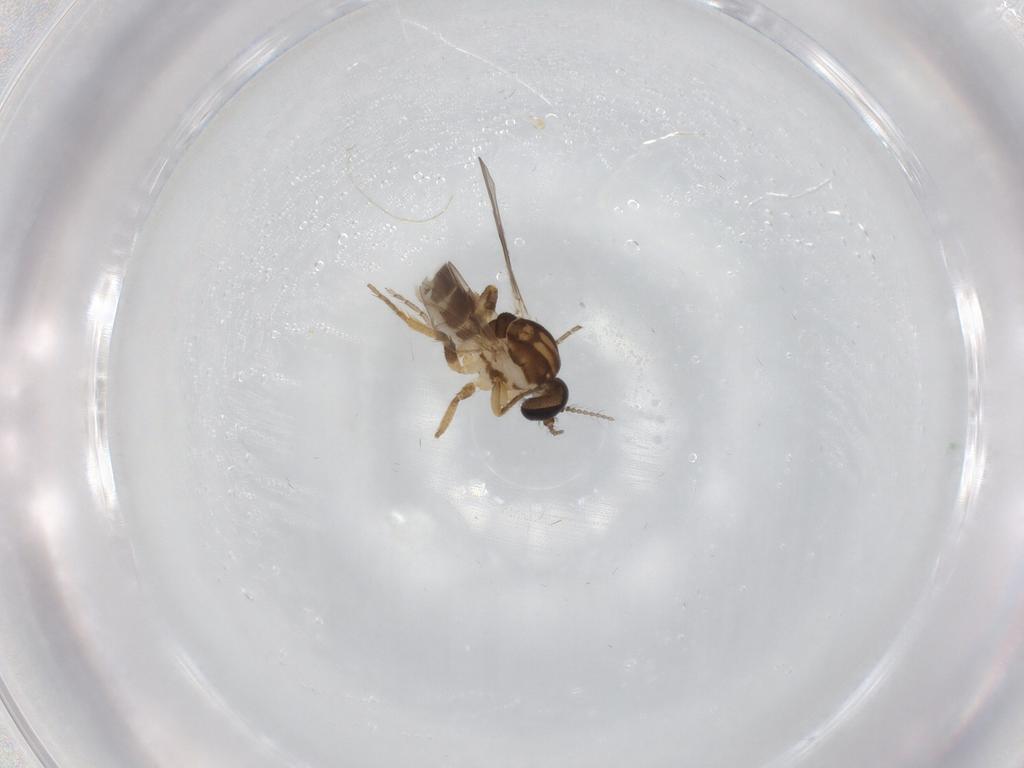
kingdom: Animalia
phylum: Arthropoda
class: Insecta
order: Diptera
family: Ceratopogonidae
